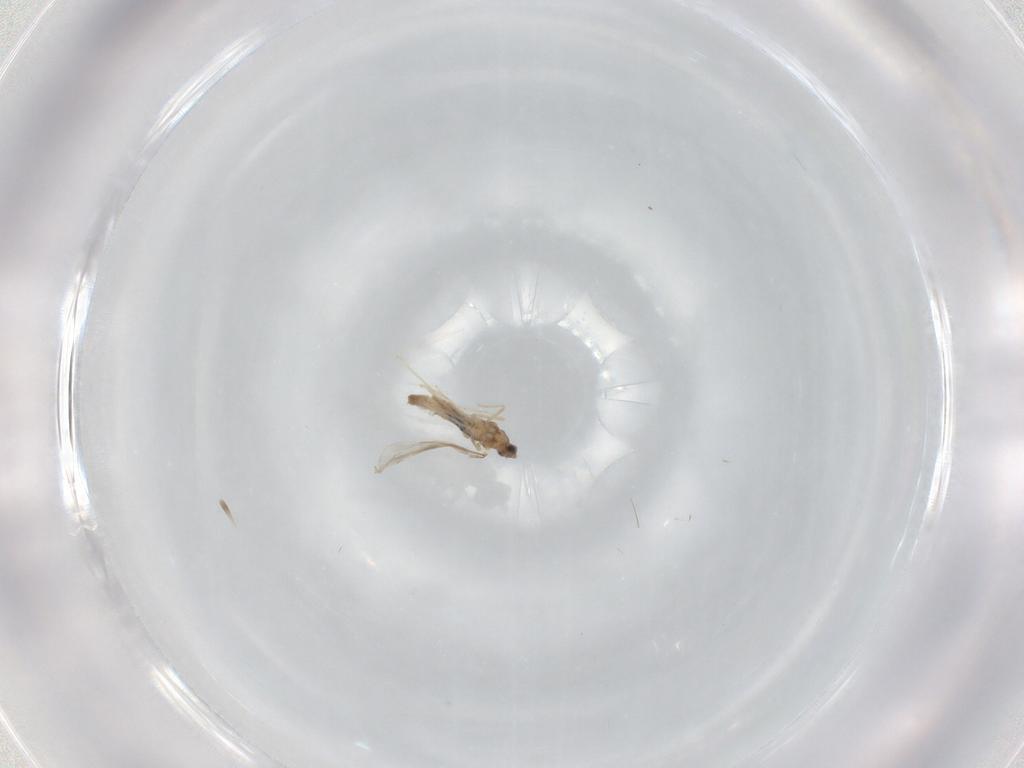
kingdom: Animalia
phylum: Arthropoda
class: Insecta
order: Diptera
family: Cecidomyiidae
